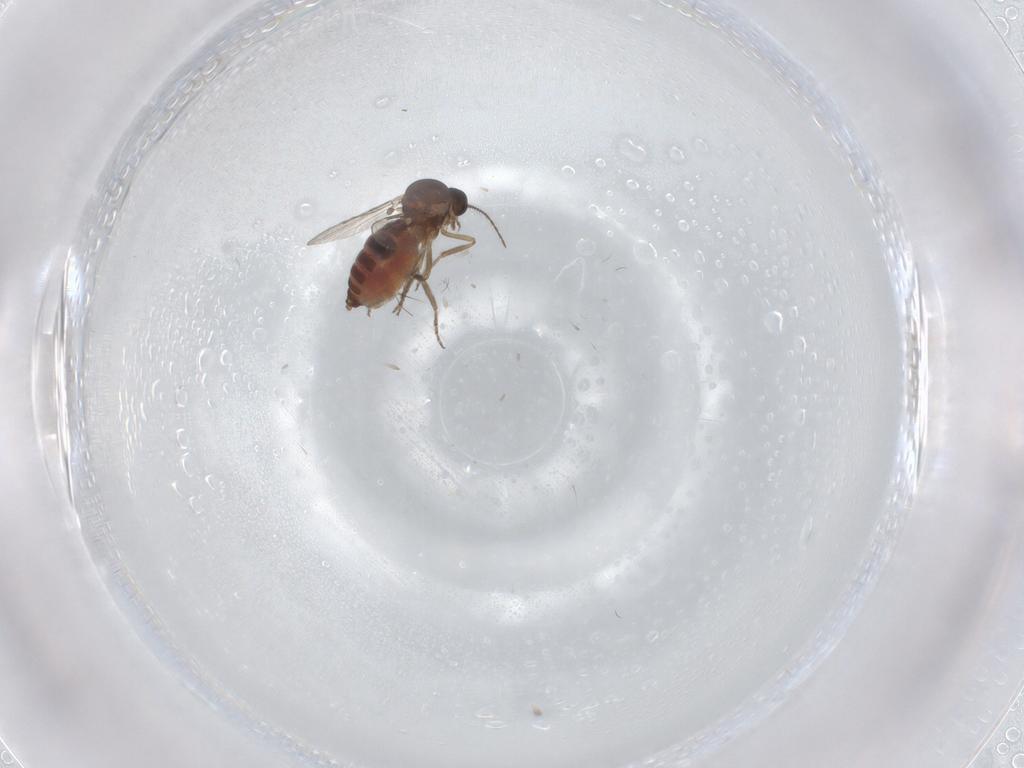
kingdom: Animalia
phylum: Arthropoda
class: Insecta
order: Diptera
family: Ceratopogonidae
